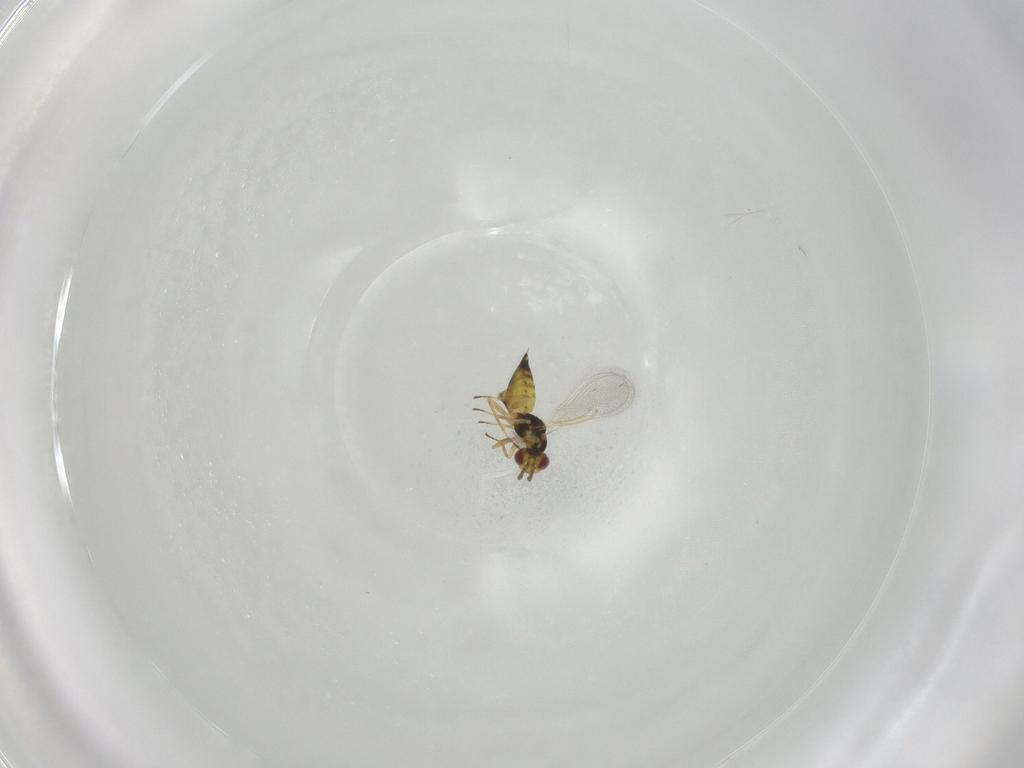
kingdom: Animalia
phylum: Arthropoda
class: Insecta
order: Hymenoptera
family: Eulophidae
